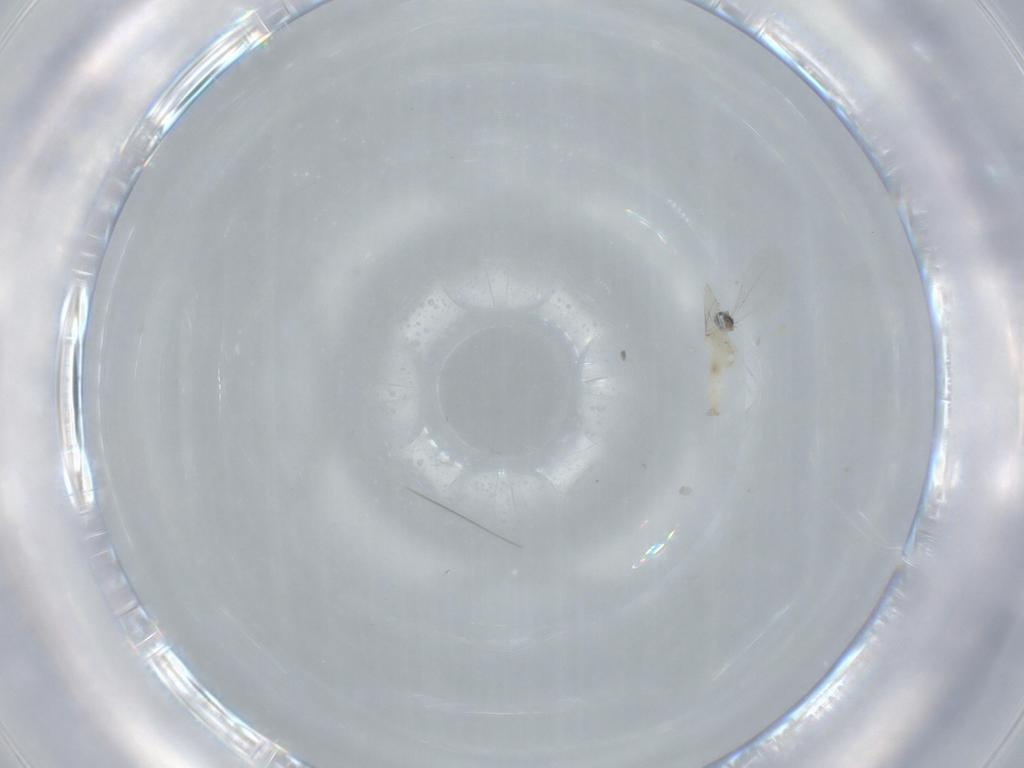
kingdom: Animalia
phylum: Arthropoda
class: Insecta
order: Diptera
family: Cecidomyiidae
